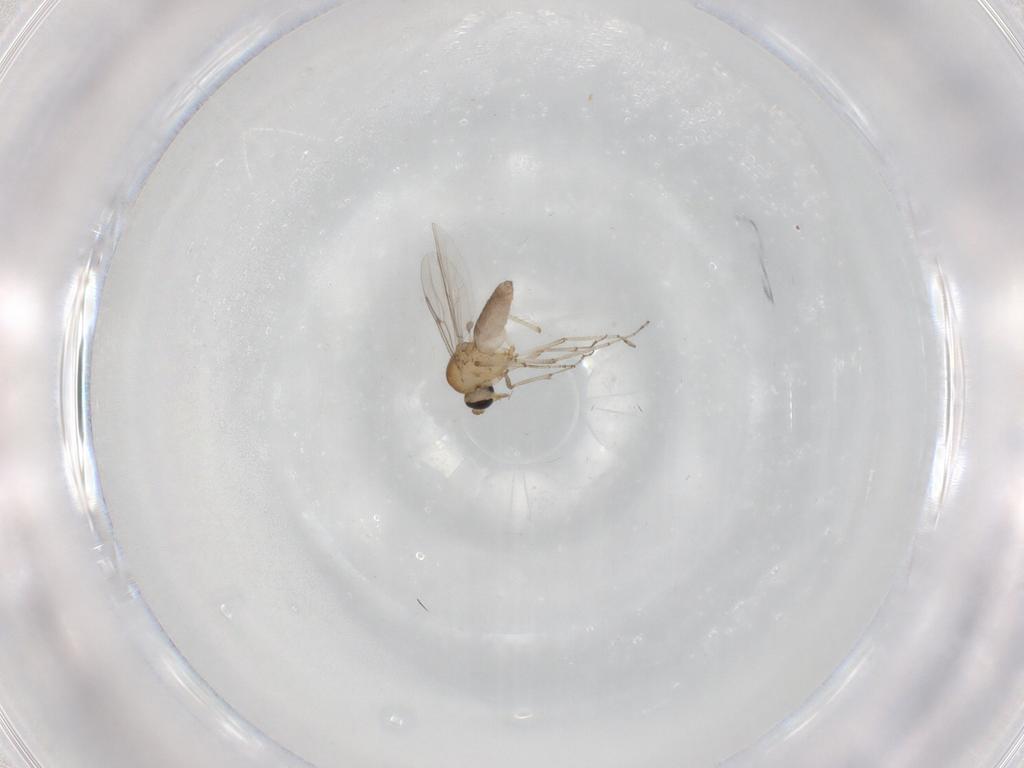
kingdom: Animalia
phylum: Arthropoda
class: Insecta
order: Diptera
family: Ceratopogonidae
